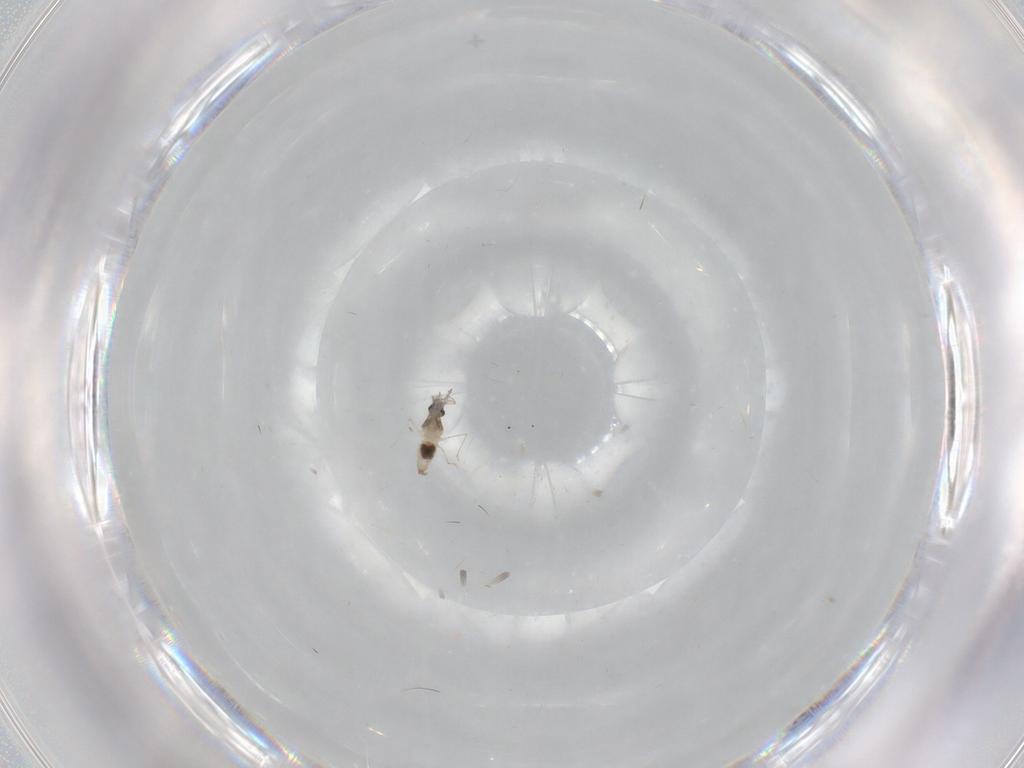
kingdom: Animalia
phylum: Arthropoda
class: Insecta
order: Diptera
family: Cecidomyiidae
